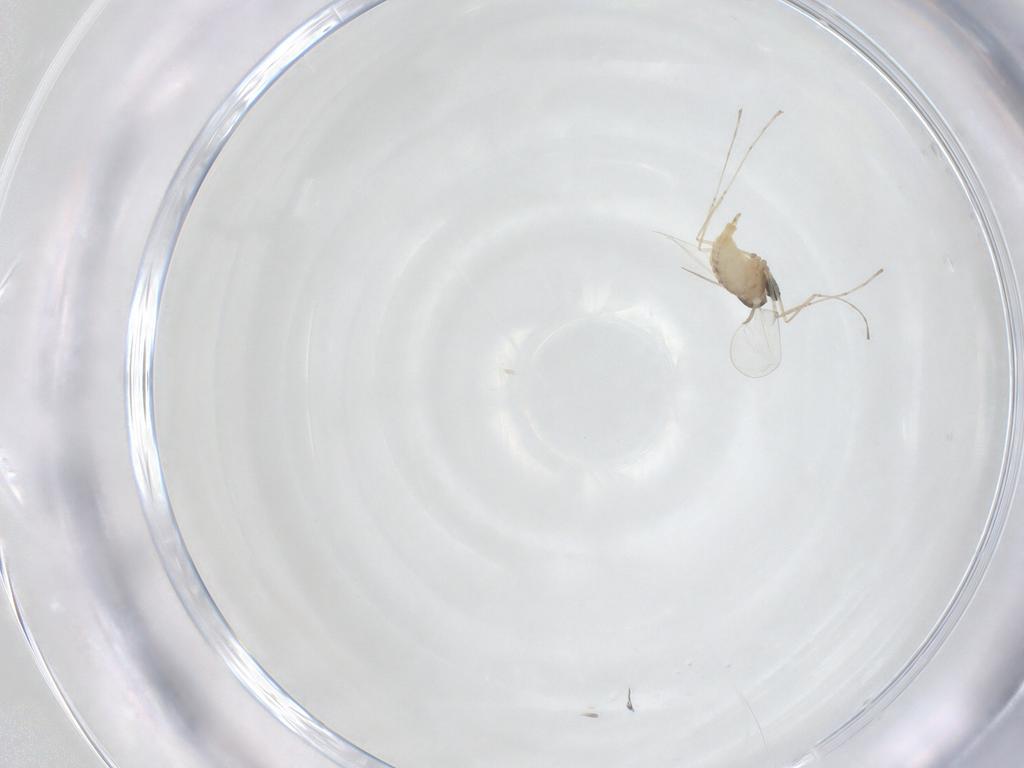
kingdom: Animalia
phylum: Arthropoda
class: Insecta
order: Diptera
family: Cecidomyiidae
